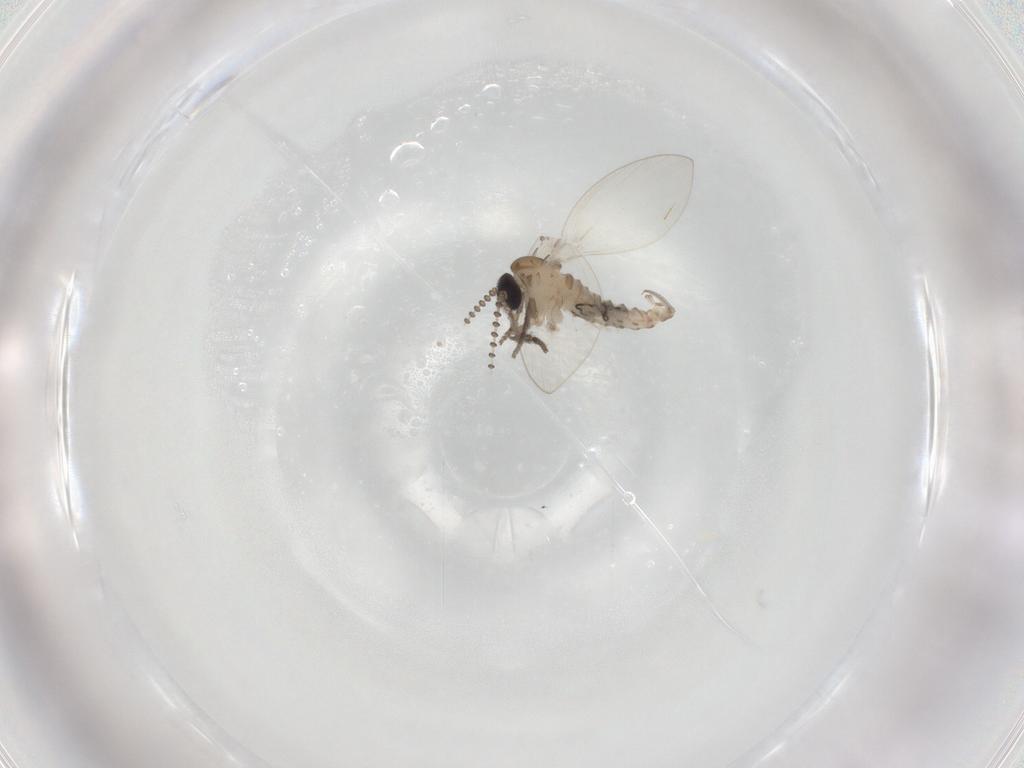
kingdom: Animalia
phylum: Arthropoda
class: Insecta
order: Diptera
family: Psychodidae
